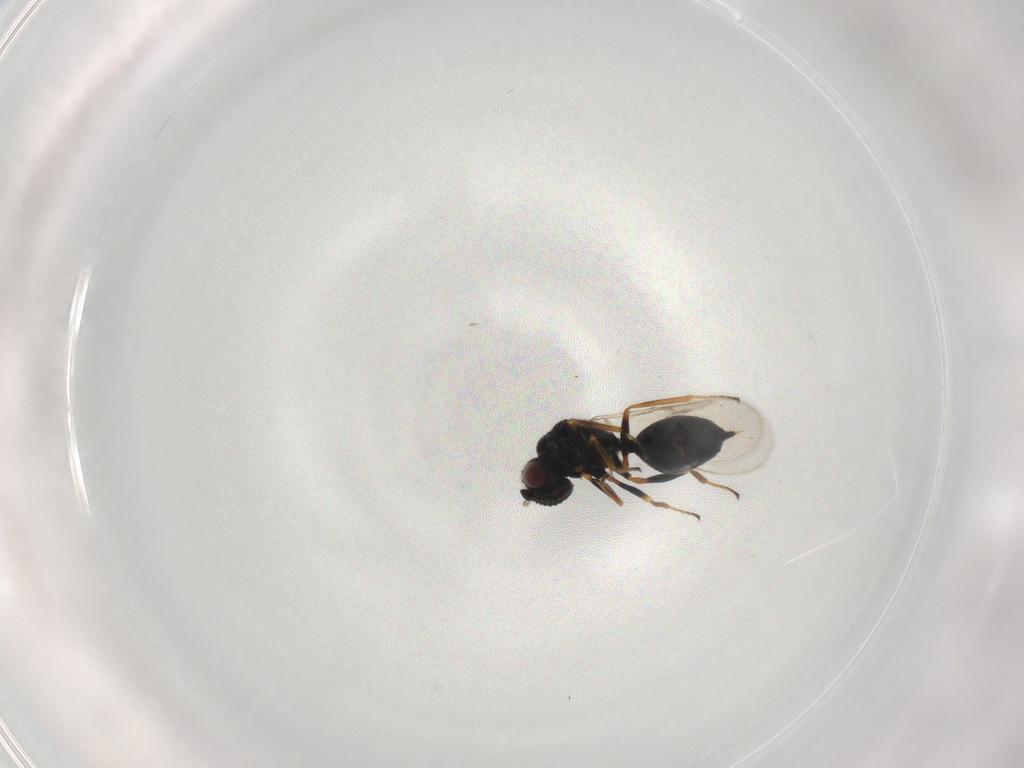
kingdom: Animalia
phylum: Arthropoda
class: Insecta
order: Hymenoptera
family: Chalcidoidea_incertae_sedis
